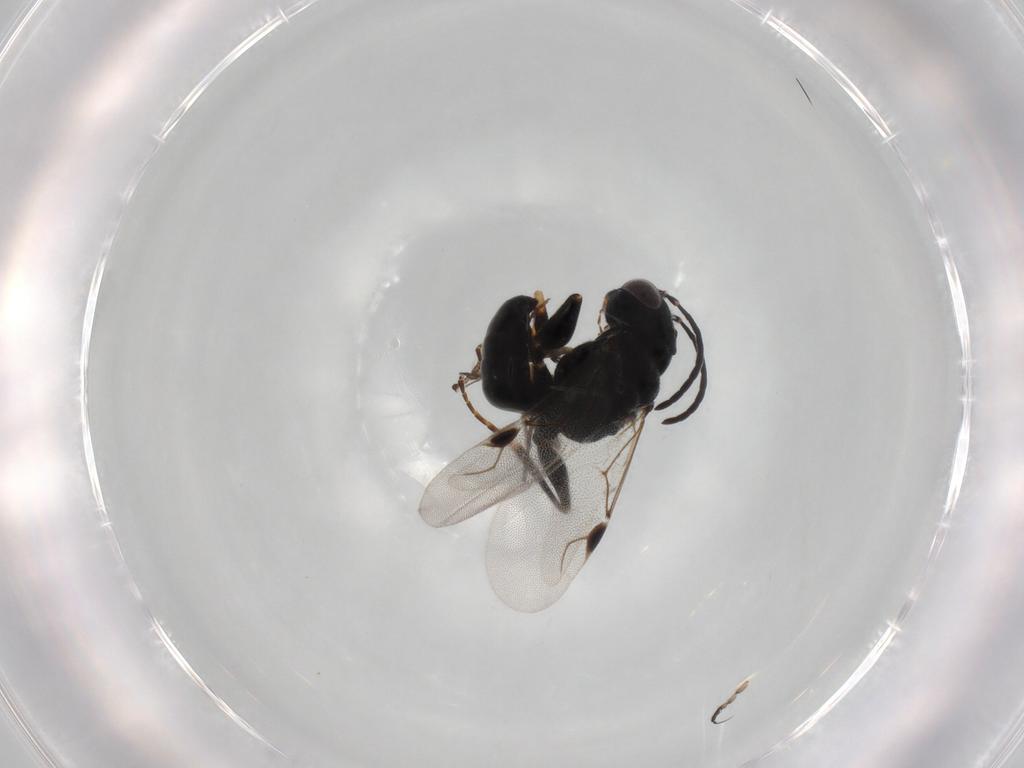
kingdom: Animalia
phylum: Arthropoda
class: Insecta
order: Hymenoptera
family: Dryinidae
